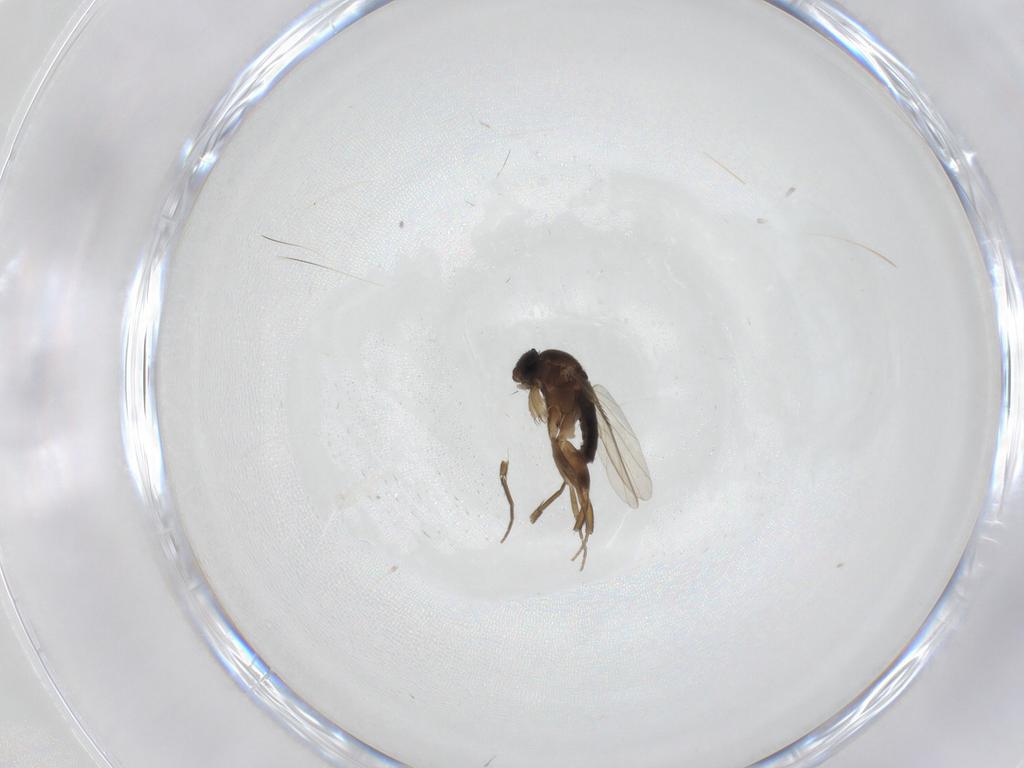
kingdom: Animalia
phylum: Arthropoda
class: Insecta
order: Diptera
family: Phoridae
